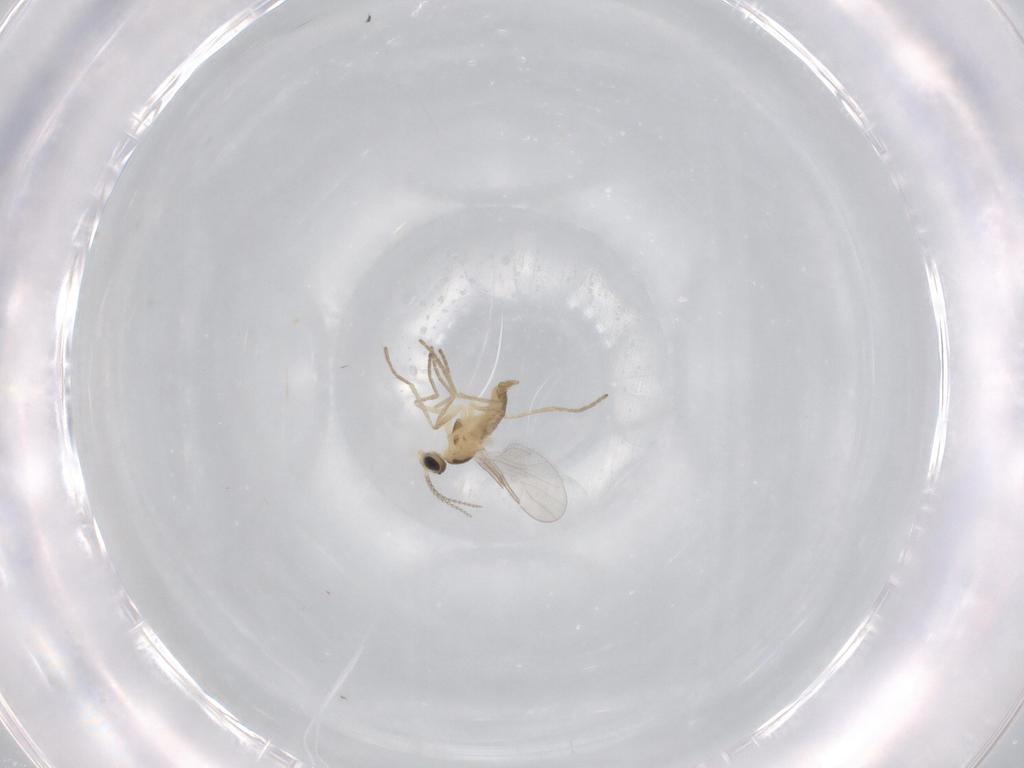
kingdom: Animalia
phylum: Arthropoda
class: Insecta
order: Diptera
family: Cecidomyiidae
